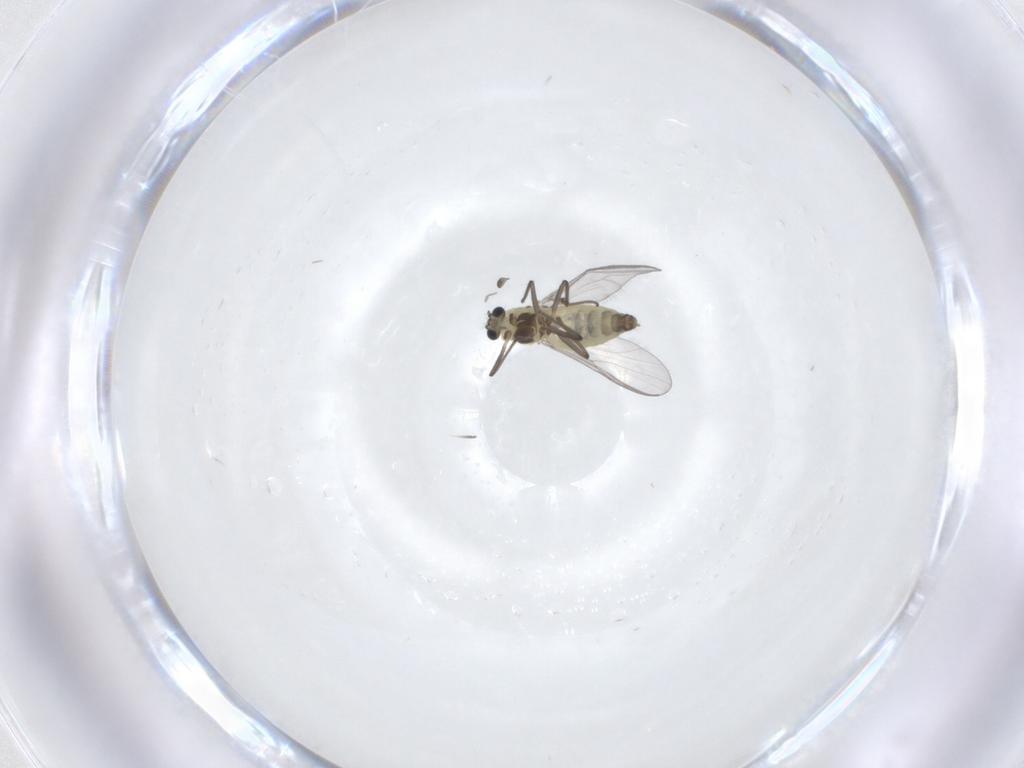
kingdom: Animalia
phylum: Arthropoda
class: Insecta
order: Diptera
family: Chironomidae
